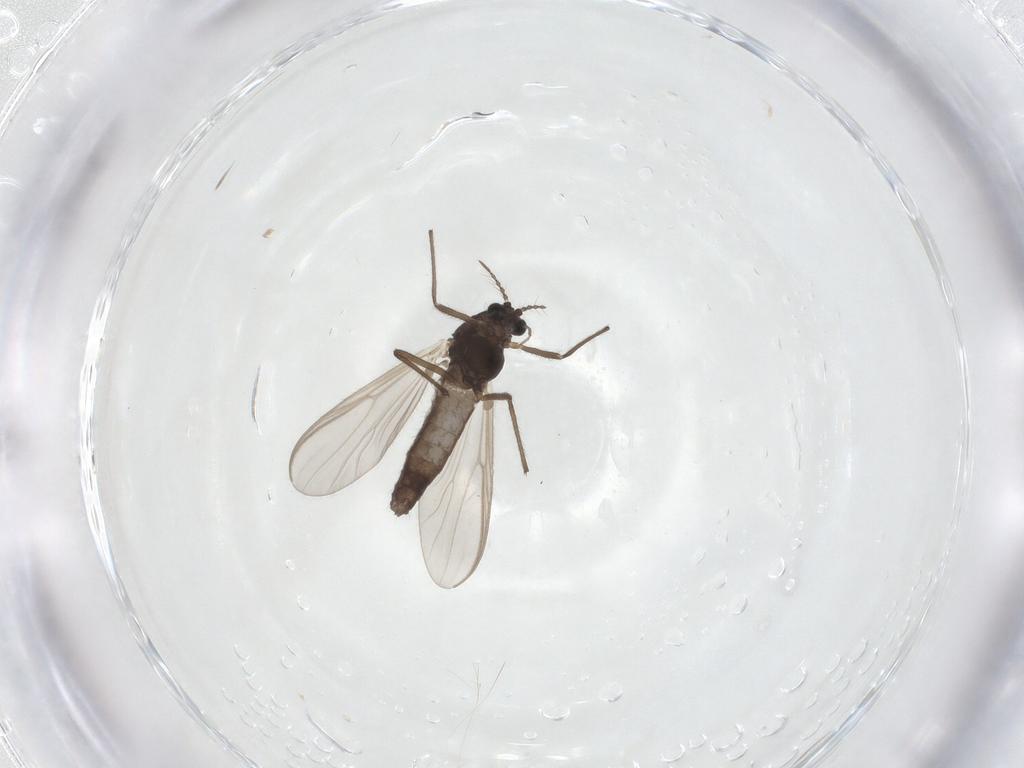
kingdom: Animalia
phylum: Arthropoda
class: Insecta
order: Diptera
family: Chironomidae
